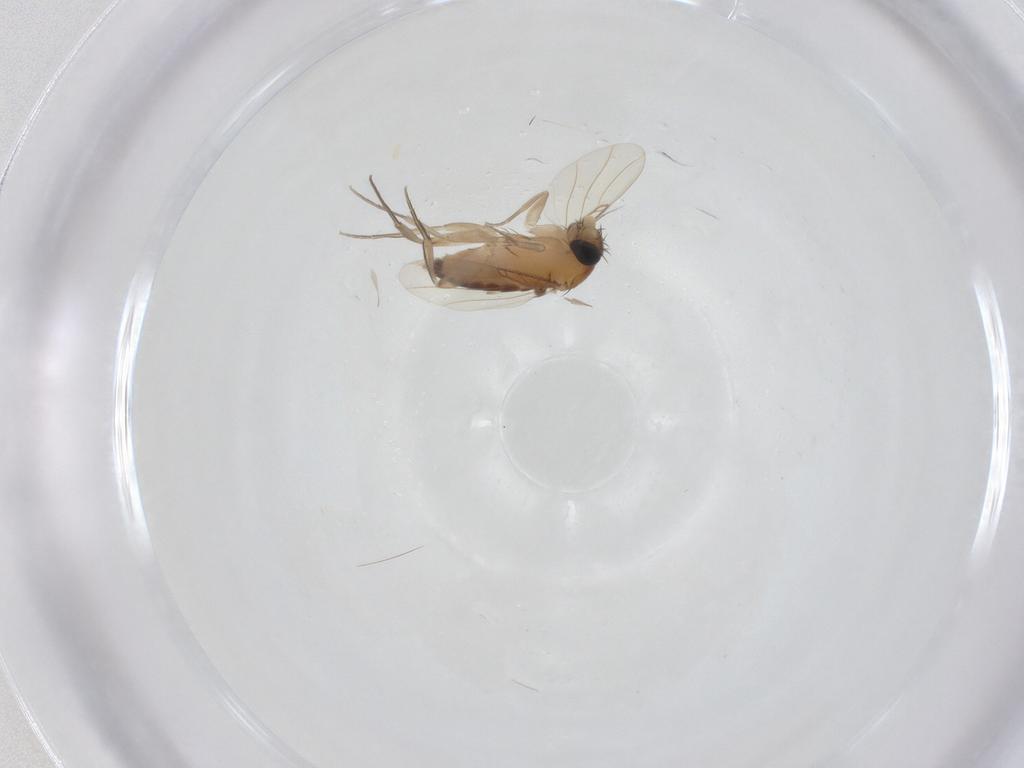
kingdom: Animalia
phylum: Arthropoda
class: Insecta
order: Diptera
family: Phoridae
